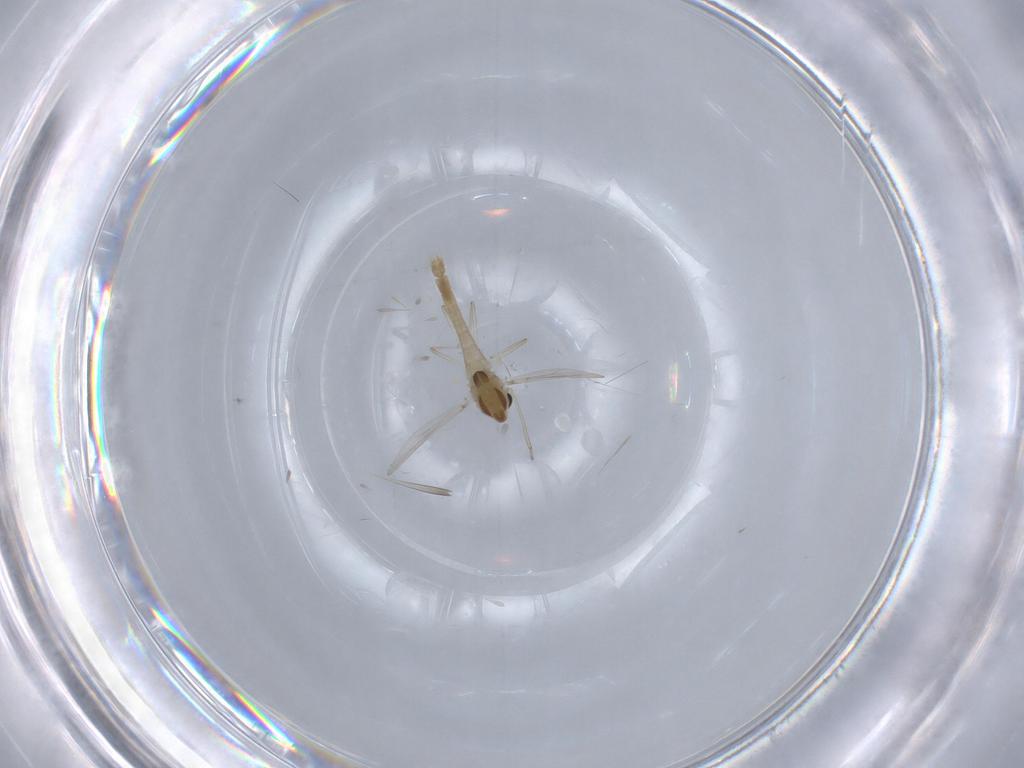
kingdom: Animalia
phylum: Arthropoda
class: Insecta
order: Diptera
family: Chironomidae
